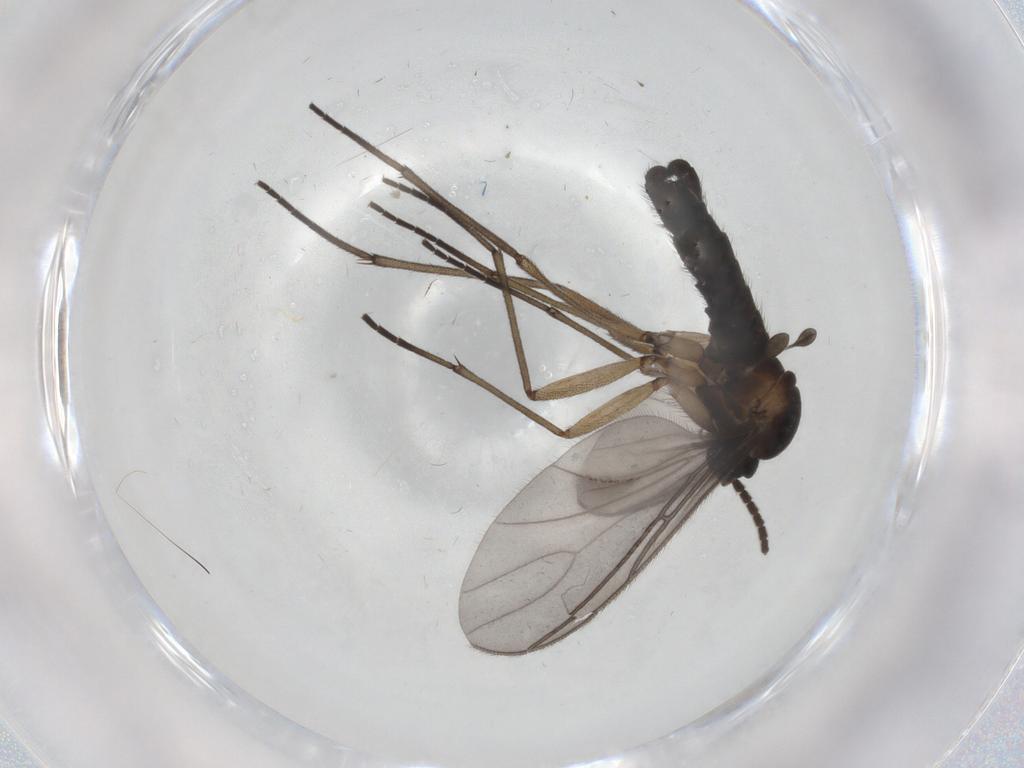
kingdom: Animalia
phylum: Arthropoda
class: Insecta
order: Diptera
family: Sciaridae
